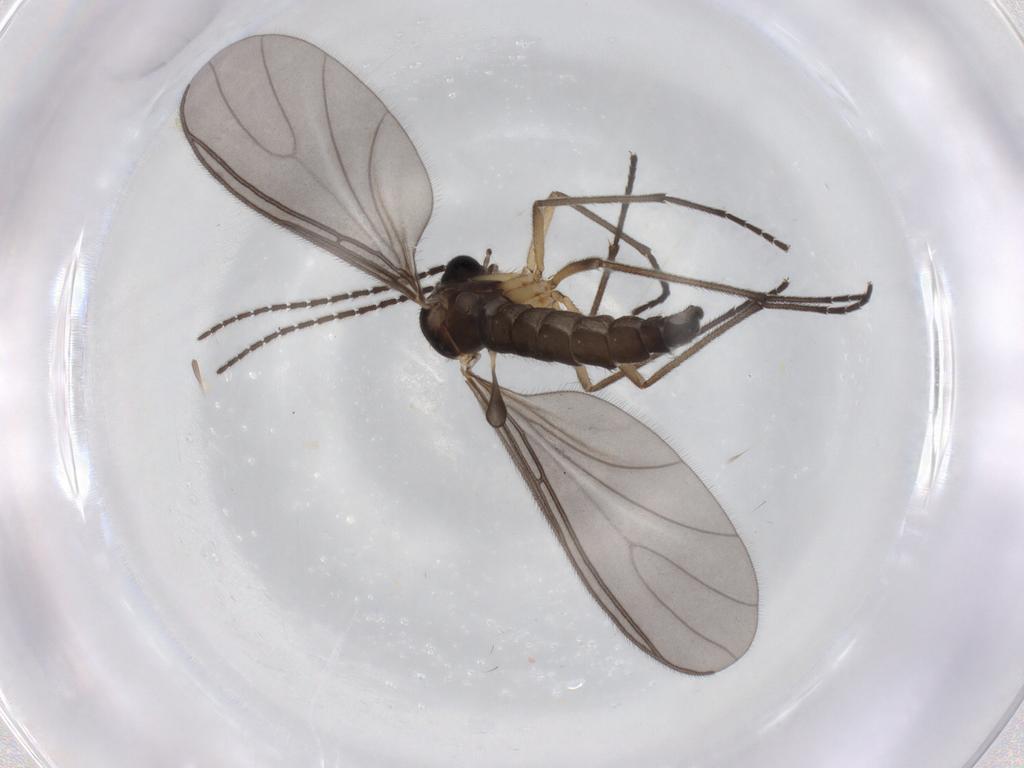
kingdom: Animalia
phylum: Arthropoda
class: Insecta
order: Diptera
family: Sciaridae
